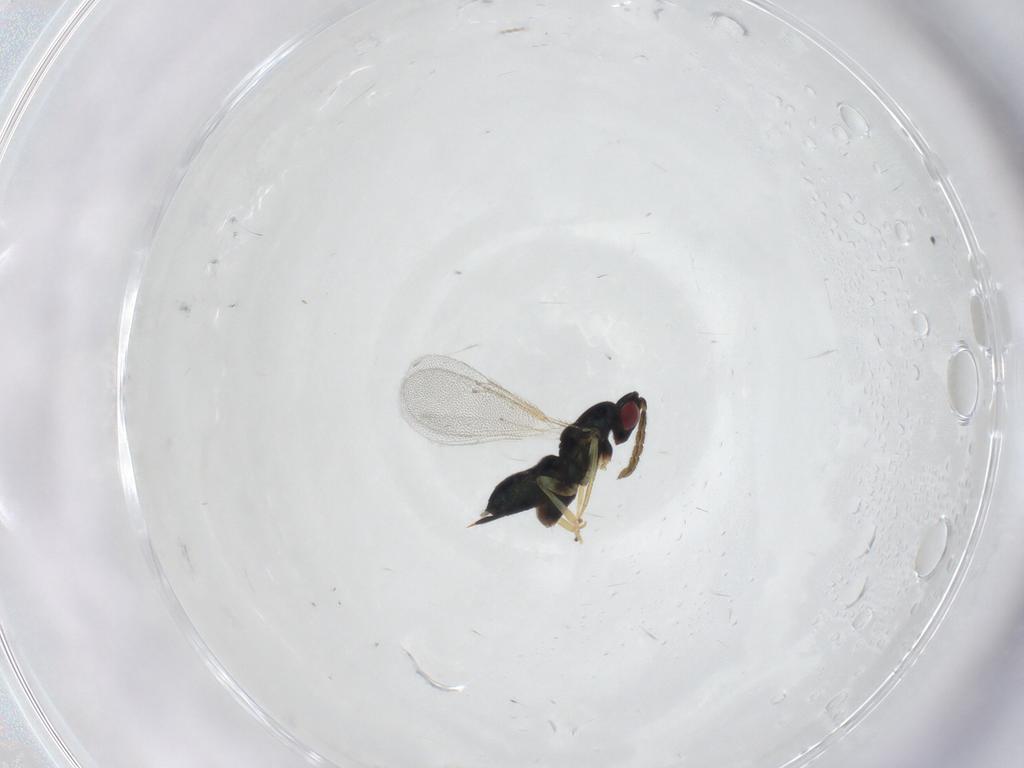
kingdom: Animalia
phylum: Arthropoda
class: Insecta
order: Hymenoptera
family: Eulophidae
